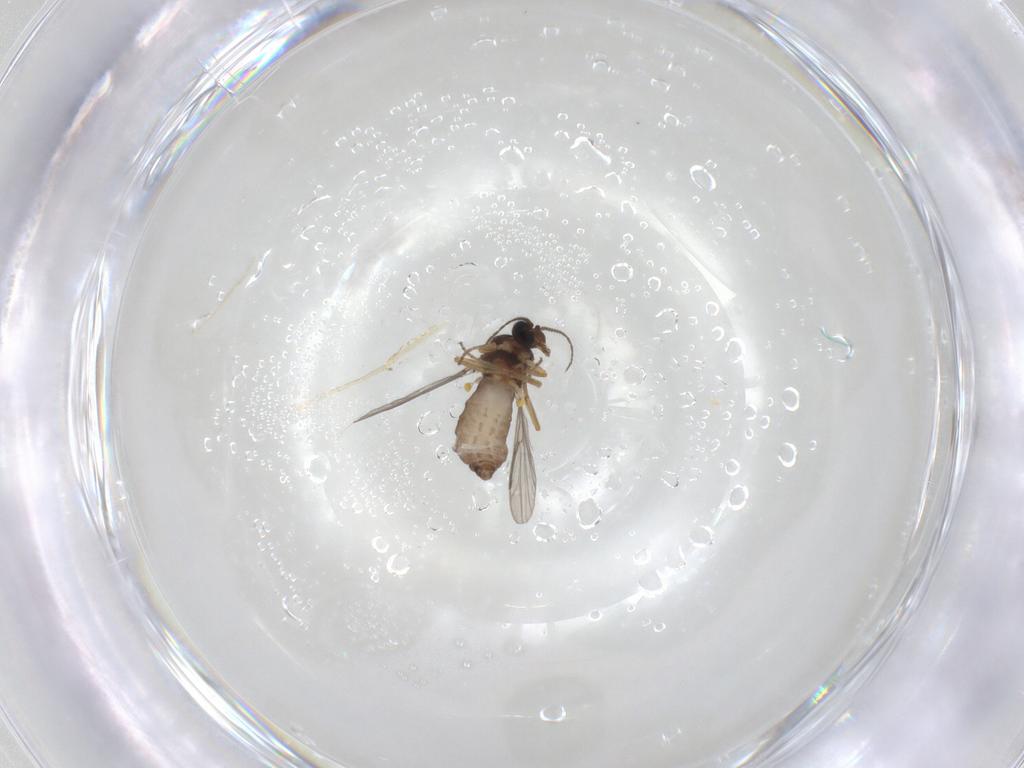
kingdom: Animalia
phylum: Arthropoda
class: Insecta
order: Diptera
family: Ceratopogonidae
